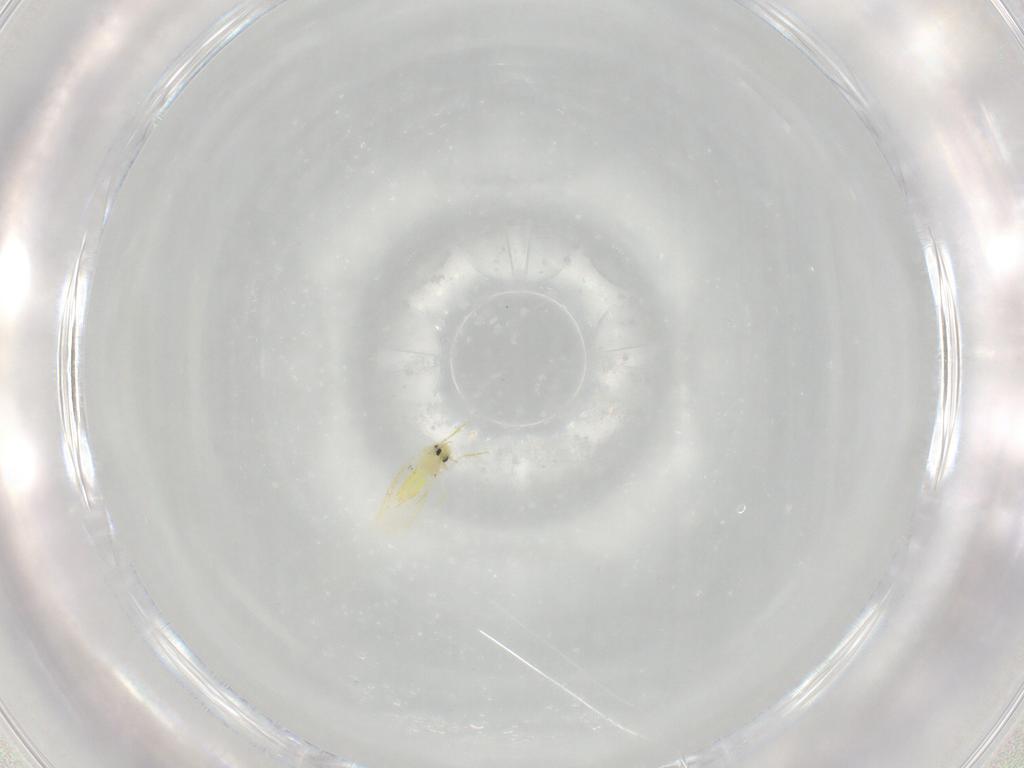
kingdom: Animalia
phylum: Arthropoda
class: Insecta
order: Hemiptera
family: Aleyrodidae
